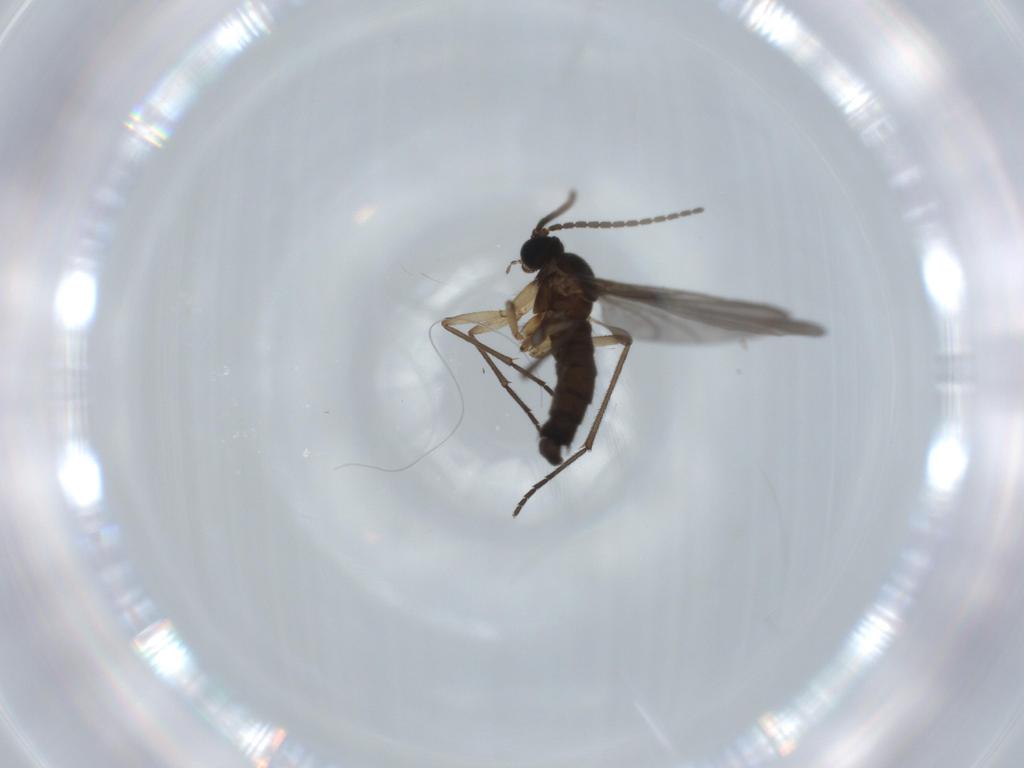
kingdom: Animalia
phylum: Arthropoda
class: Insecta
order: Diptera
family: Sciaridae
